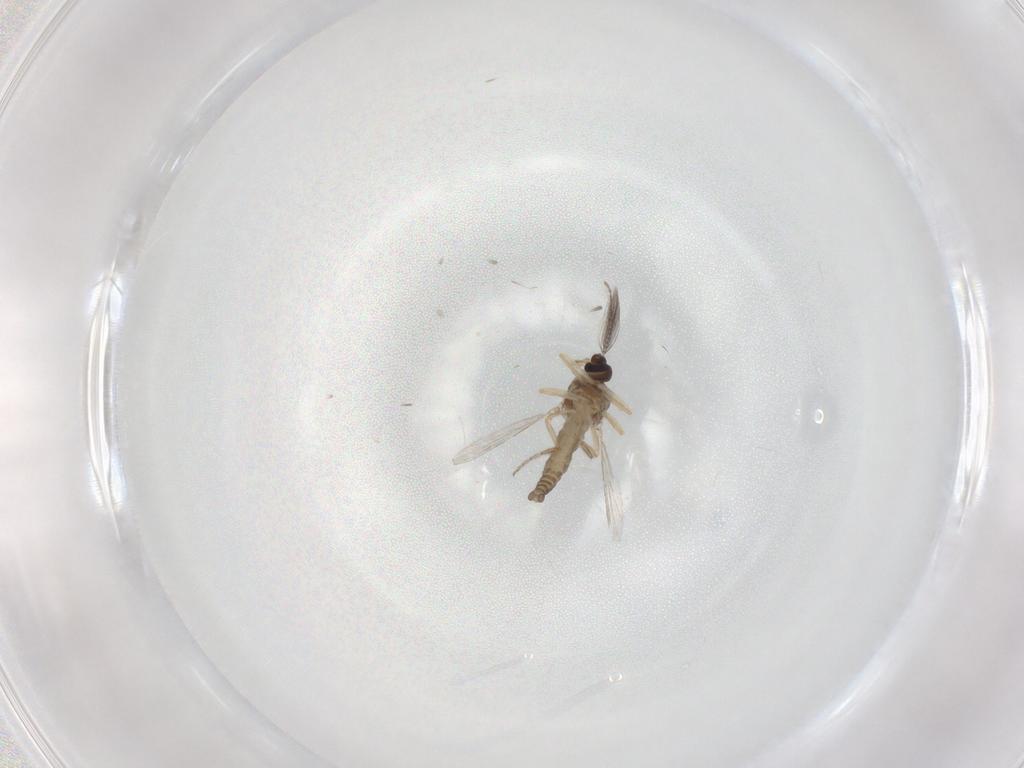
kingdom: Animalia
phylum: Arthropoda
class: Insecta
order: Diptera
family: Ceratopogonidae
